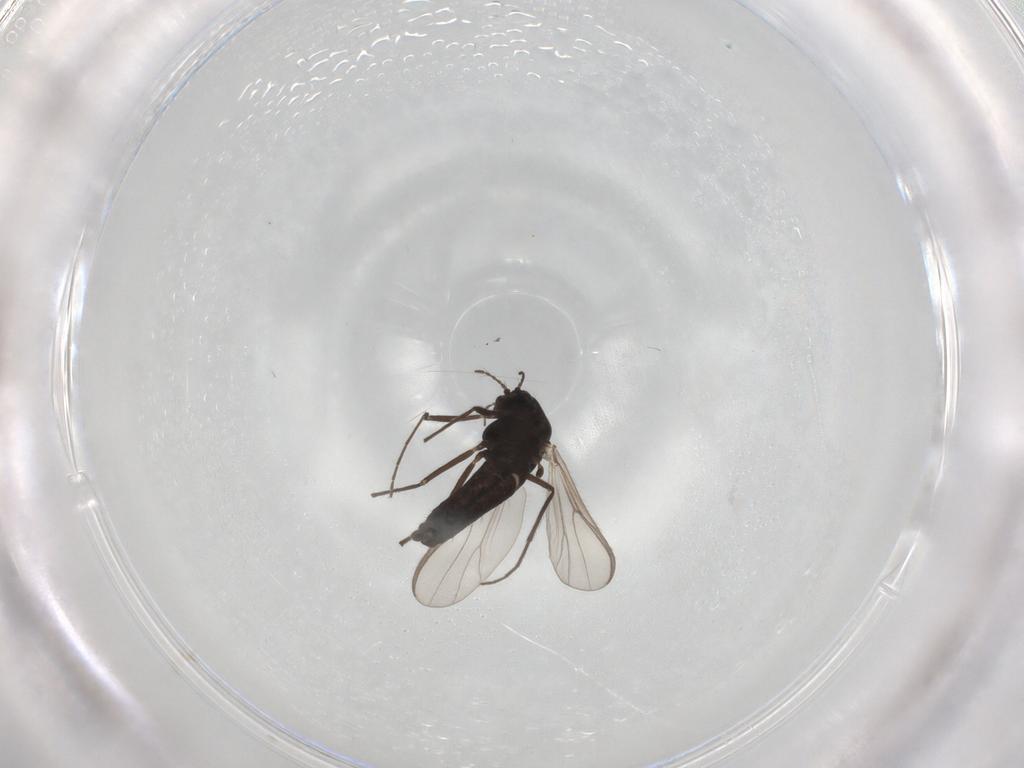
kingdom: Animalia
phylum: Arthropoda
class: Insecta
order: Diptera
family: Chironomidae
